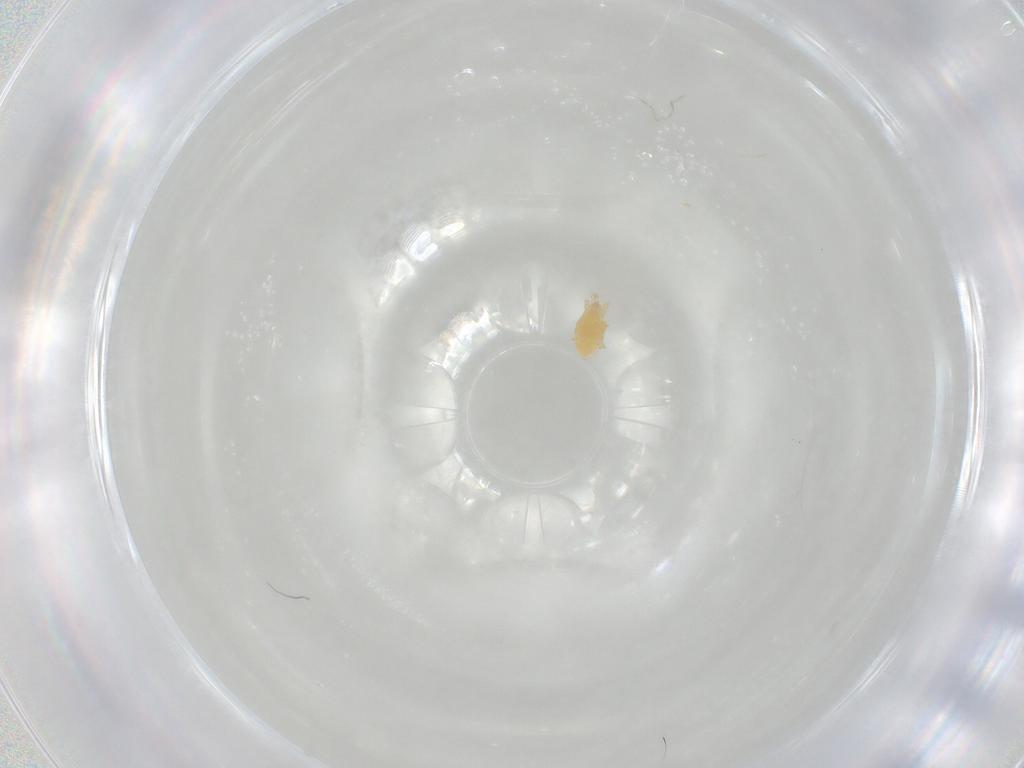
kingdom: Animalia
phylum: Arthropoda
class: Arachnida
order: Mesostigmata
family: Parasitidae
